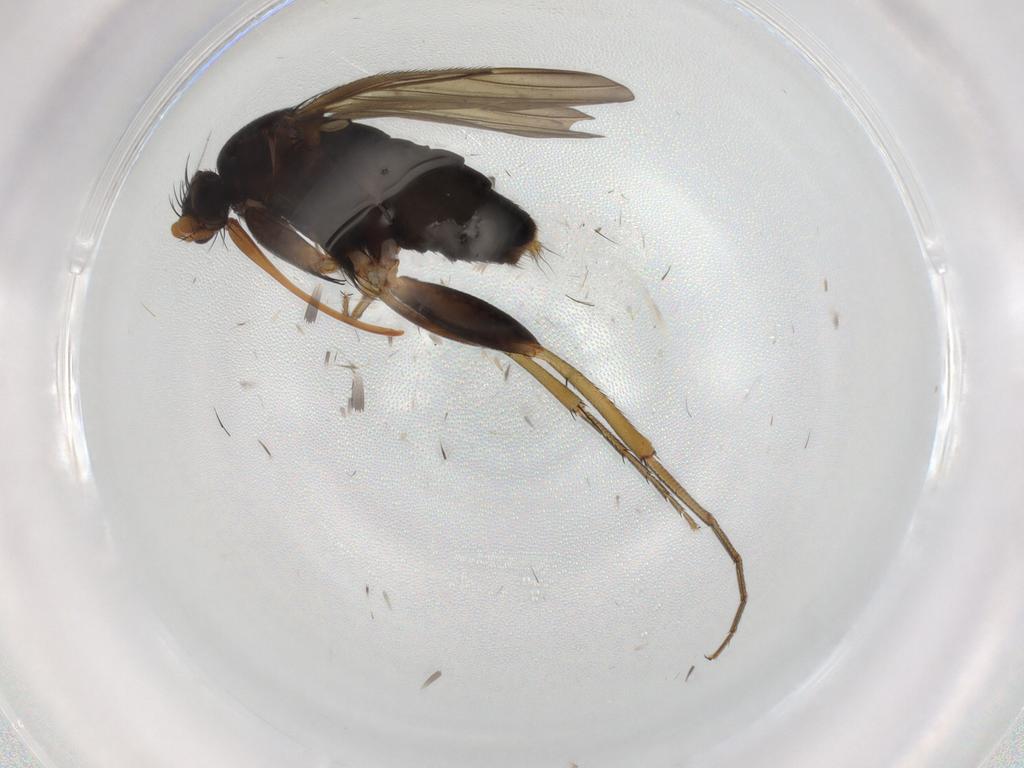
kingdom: Animalia
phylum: Arthropoda
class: Insecta
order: Diptera
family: Phoridae
